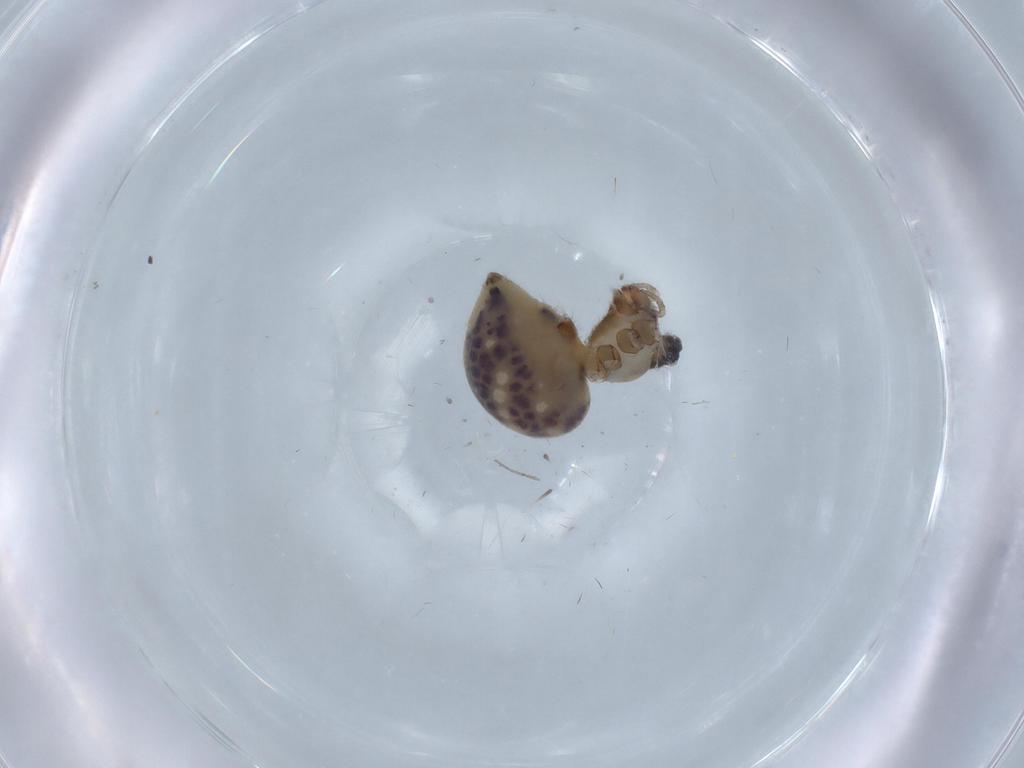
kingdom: Animalia
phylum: Arthropoda
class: Arachnida
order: Araneae
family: Pholcidae
